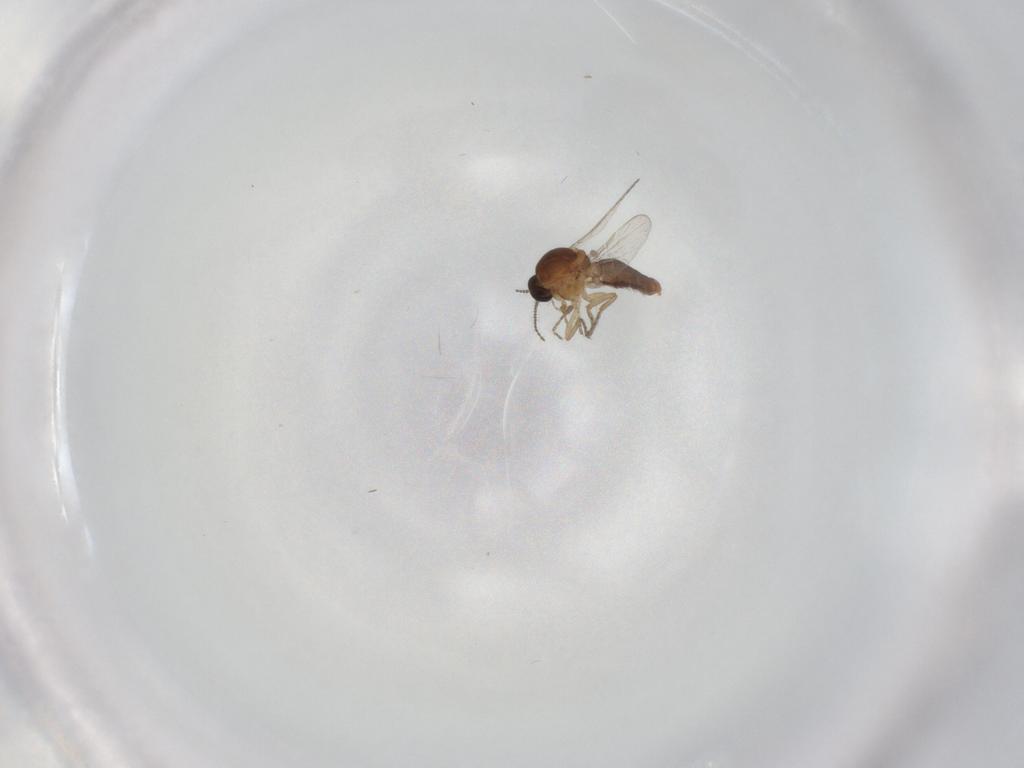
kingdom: Animalia
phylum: Arthropoda
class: Insecta
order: Diptera
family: Ceratopogonidae
